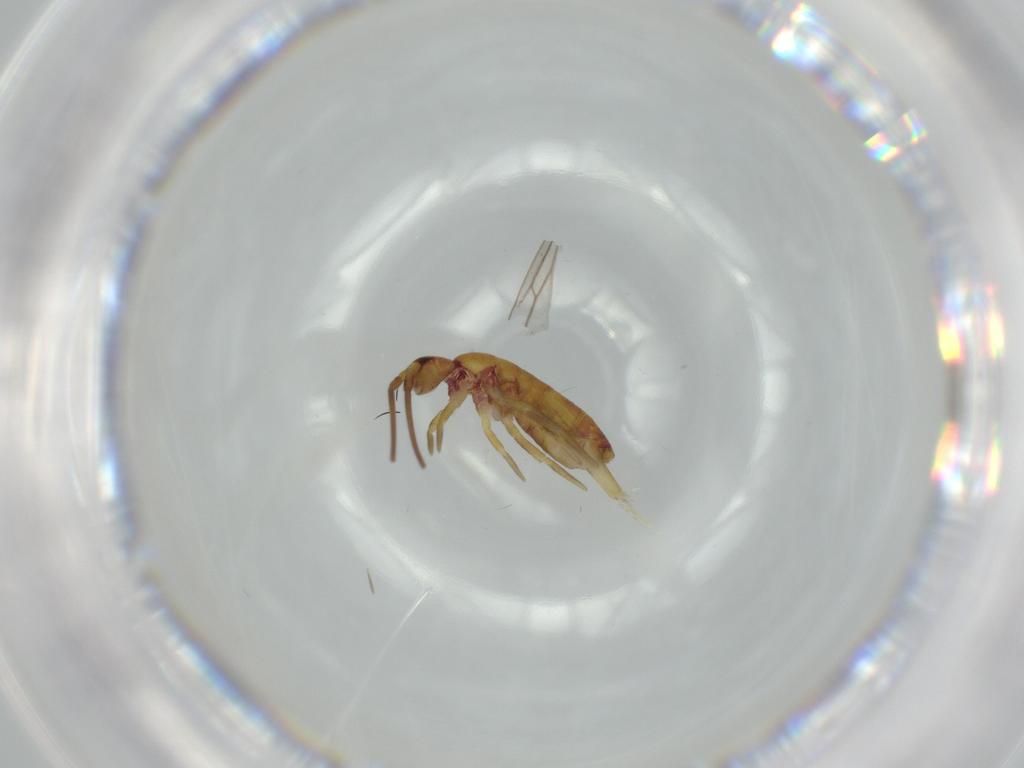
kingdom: Animalia
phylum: Arthropoda
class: Collembola
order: Entomobryomorpha
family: Tomoceridae
